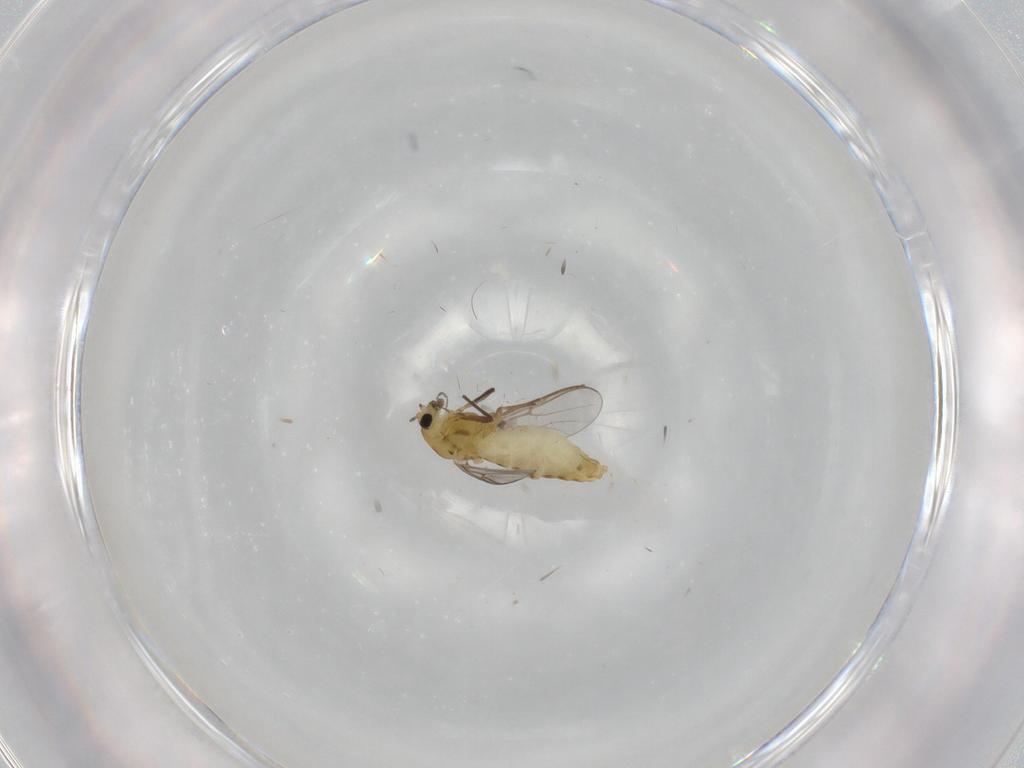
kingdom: Animalia
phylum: Arthropoda
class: Insecta
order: Diptera
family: Chironomidae
